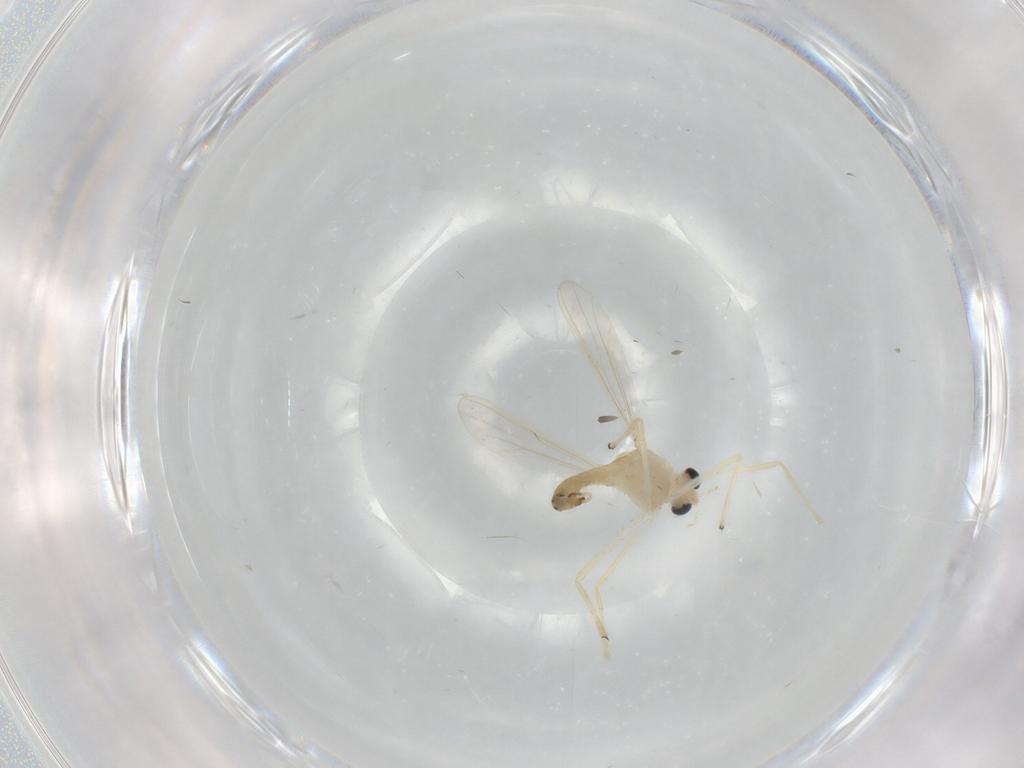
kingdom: Animalia
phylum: Arthropoda
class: Insecta
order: Diptera
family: Chironomidae
